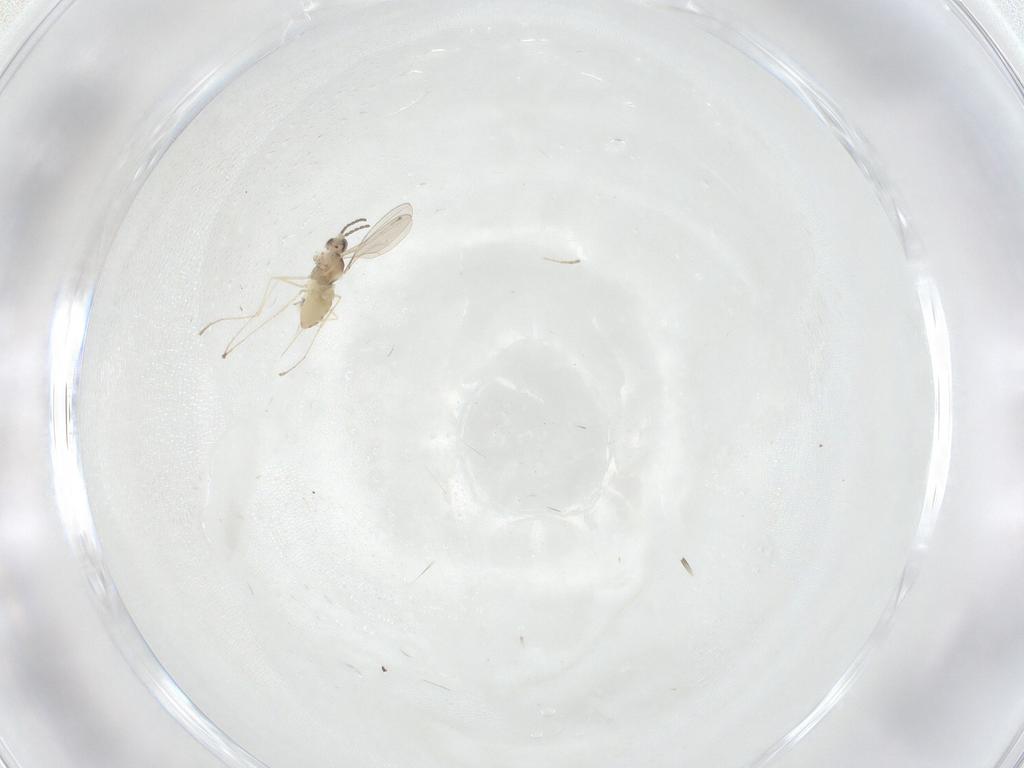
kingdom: Animalia
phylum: Arthropoda
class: Insecta
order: Diptera
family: Cecidomyiidae
